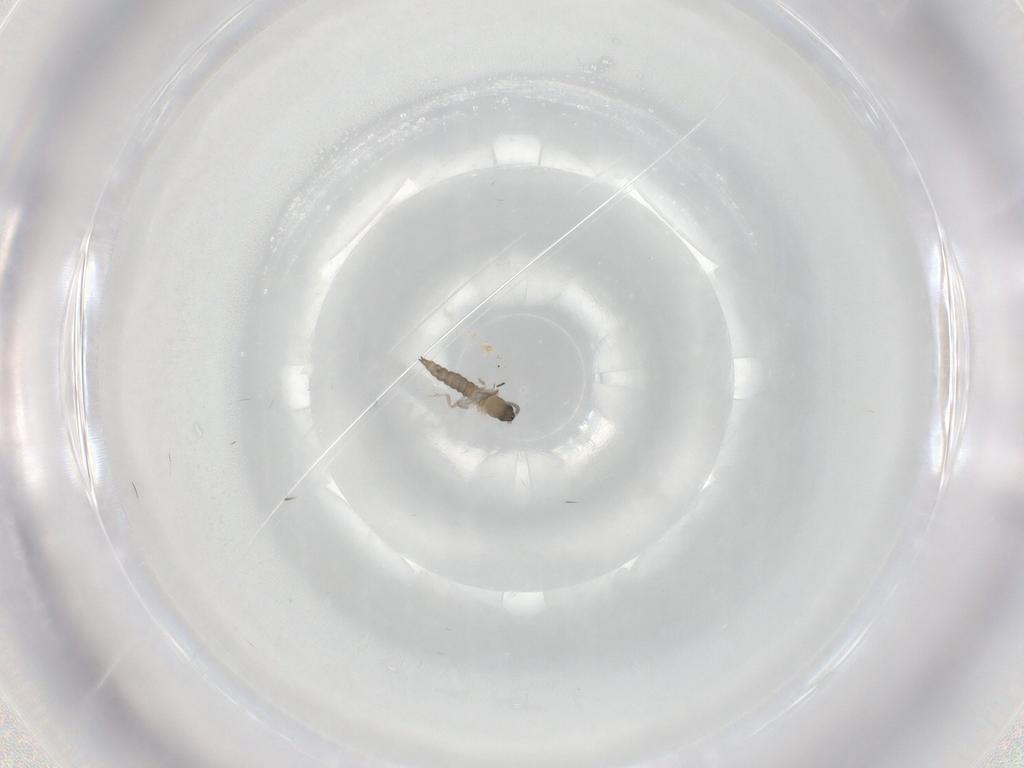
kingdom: Animalia
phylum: Arthropoda
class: Insecta
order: Diptera
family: Cecidomyiidae
